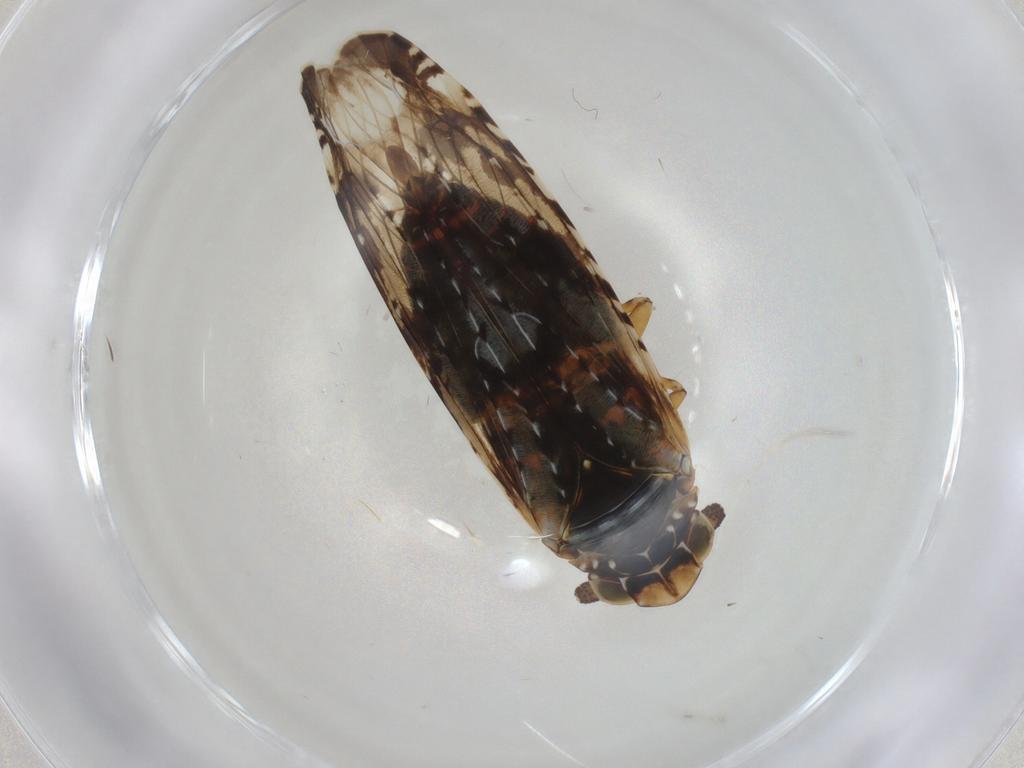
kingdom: Animalia
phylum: Arthropoda
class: Insecta
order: Hemiptera
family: Achilidae
